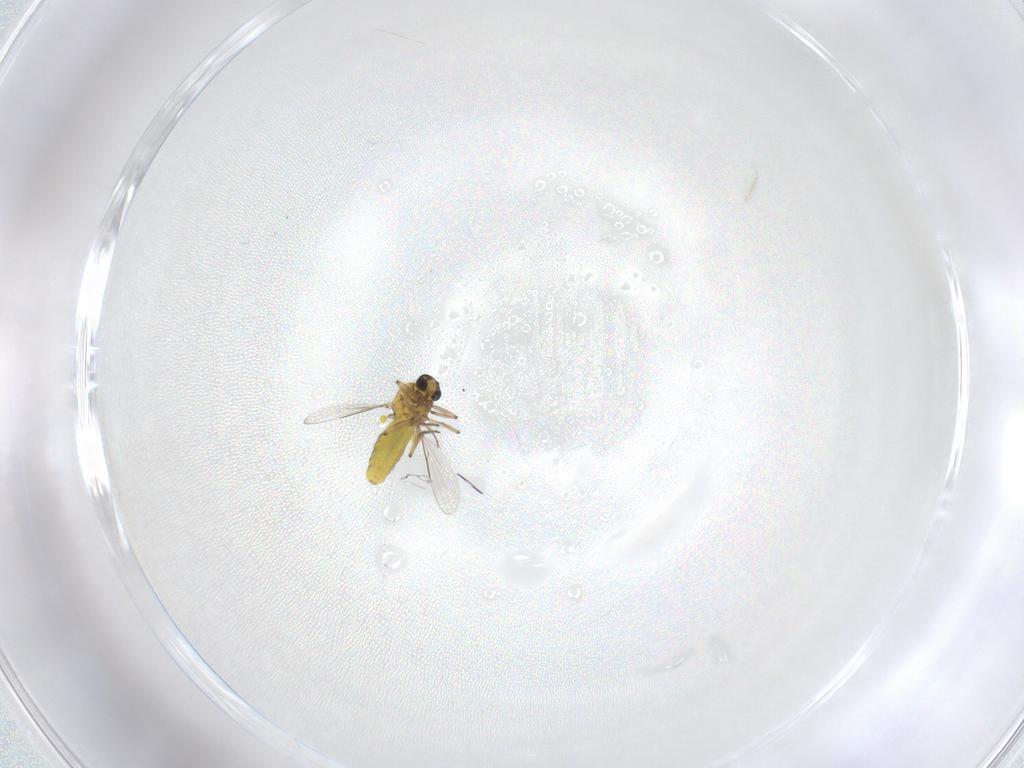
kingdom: Animalia
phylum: Arthropoda
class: Insecta
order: Diptera
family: Ceratopogonidae
